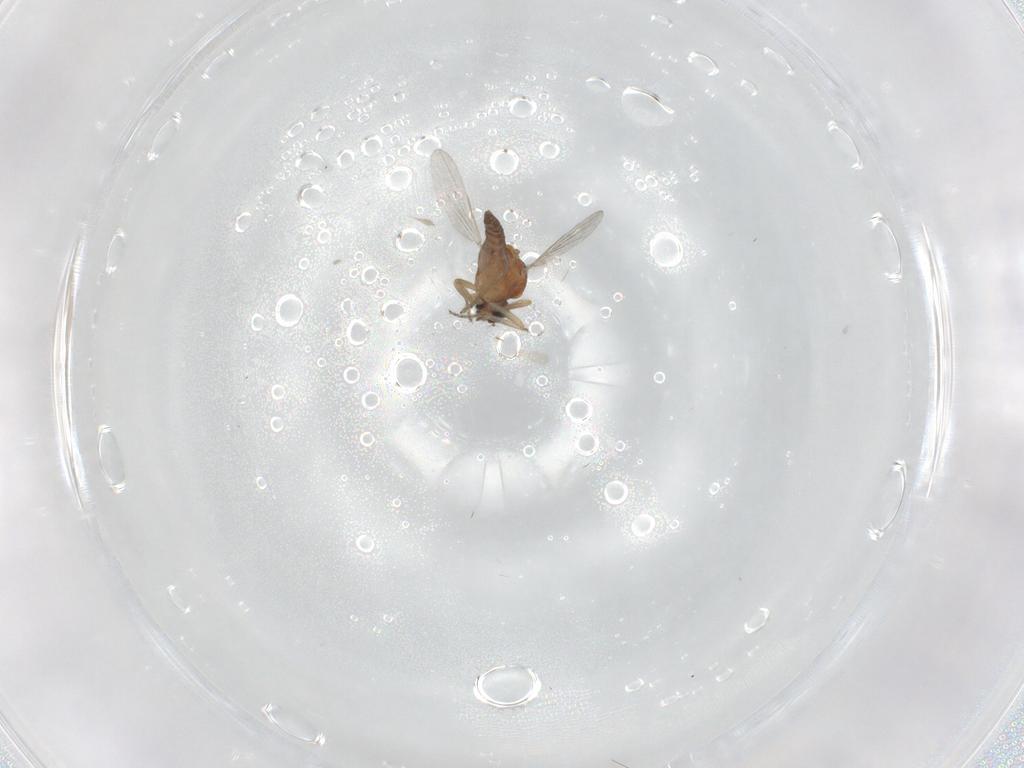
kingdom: Animalia
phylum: Arthropoda
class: Insecta
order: Diptera
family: Ceratopogonidae
